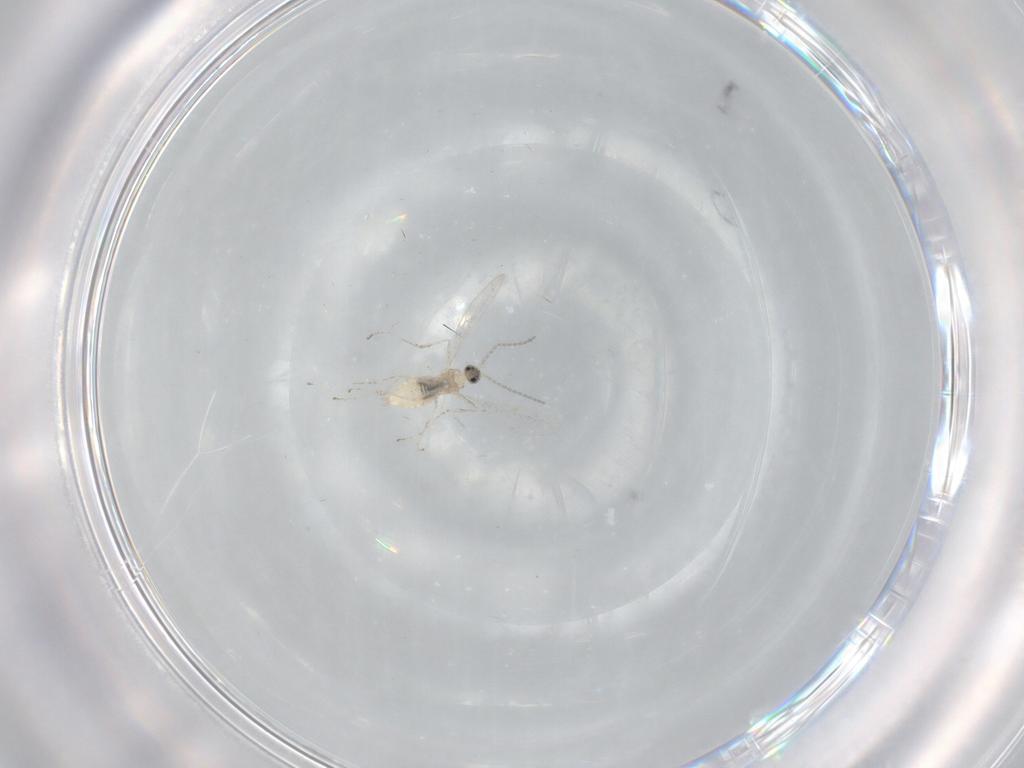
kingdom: Animalia
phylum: Arthropoda
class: Insecta
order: Diptera
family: Cecidomyiidae
